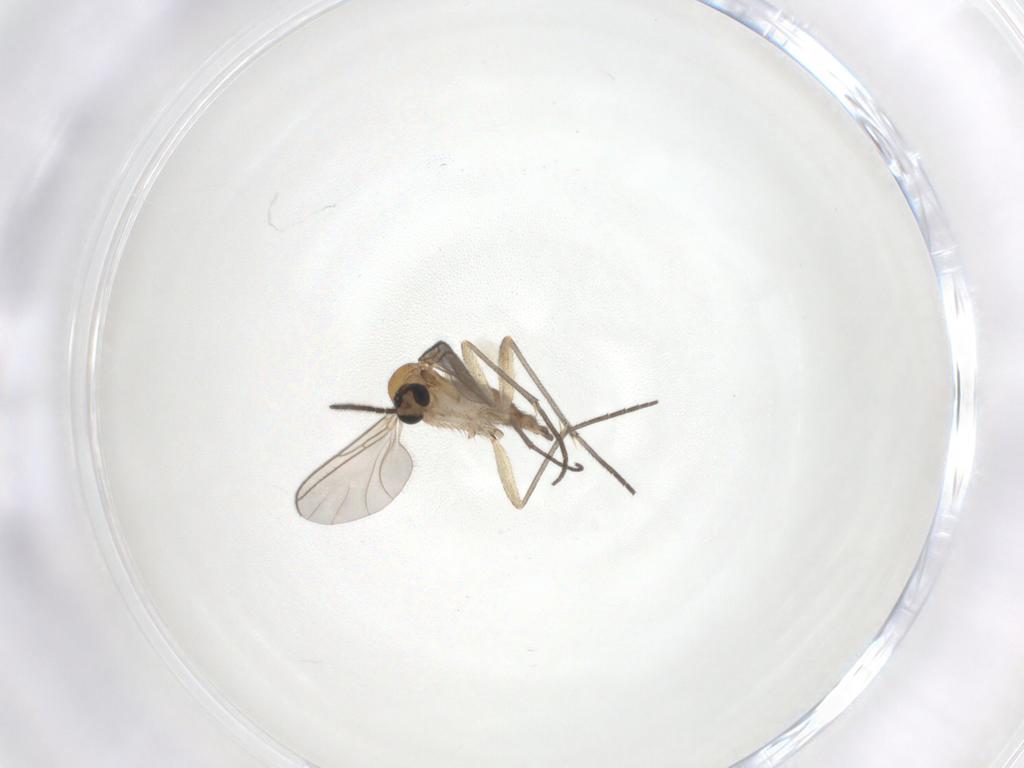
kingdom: Animalia
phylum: Arthropoda
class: Insecta
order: Diptera
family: Sciaridae
